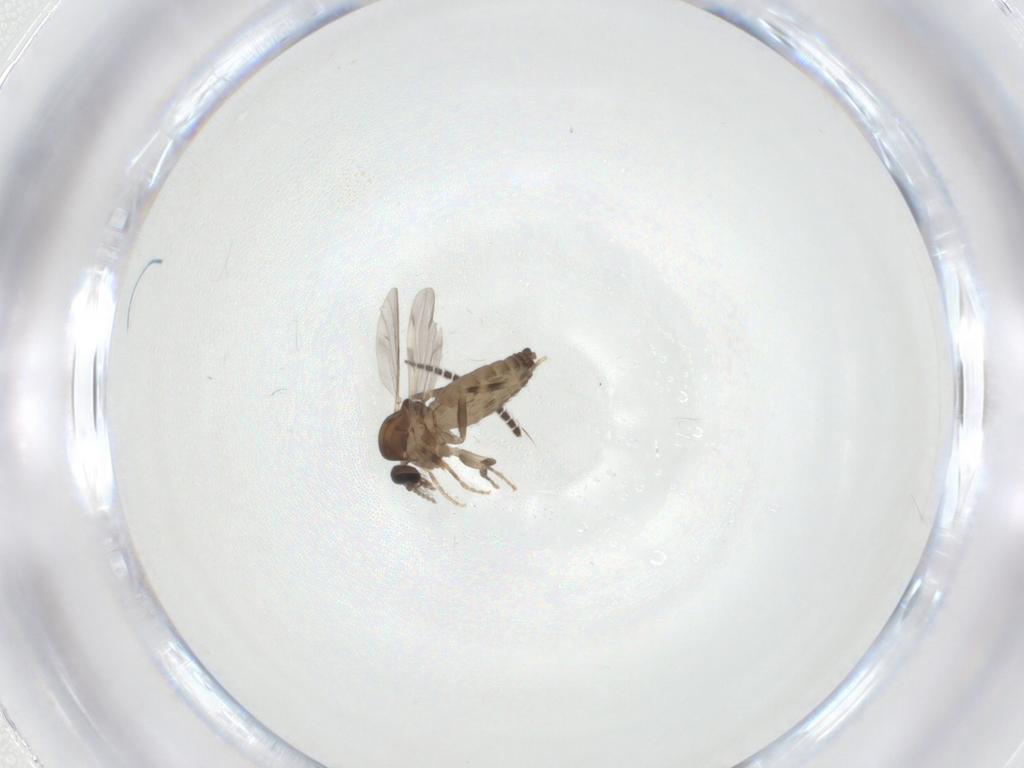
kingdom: Animalia
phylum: Arthropoda
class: Insecta
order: Diptera
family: Ceratopogonidae
